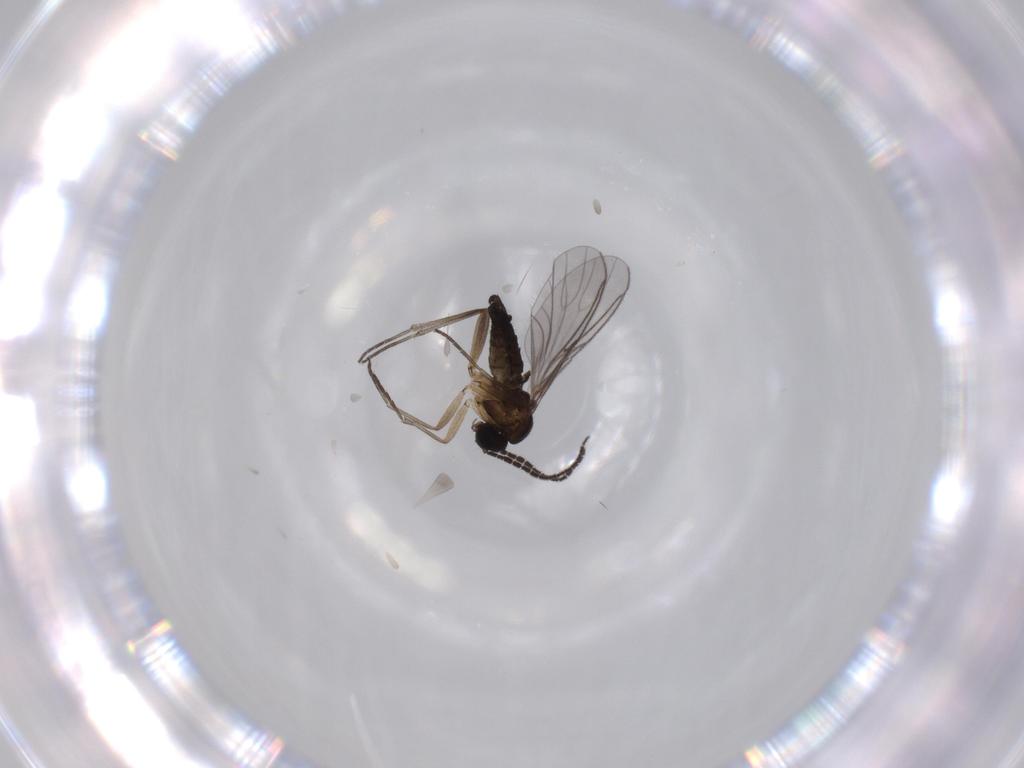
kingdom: Animalia
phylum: Arthropoda
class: Insecta
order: Diptera
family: Sciaridae
